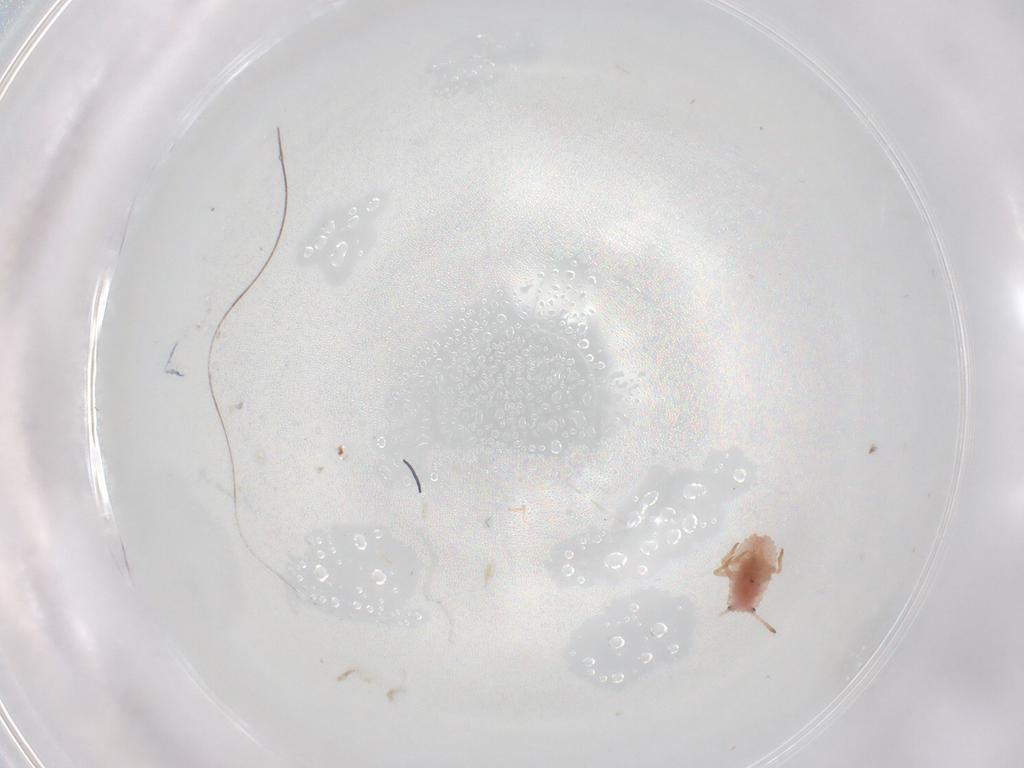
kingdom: Animalia
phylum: Arthropoda
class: Insecta
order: Hemiptera
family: Coccoidea_incertae_sedis
